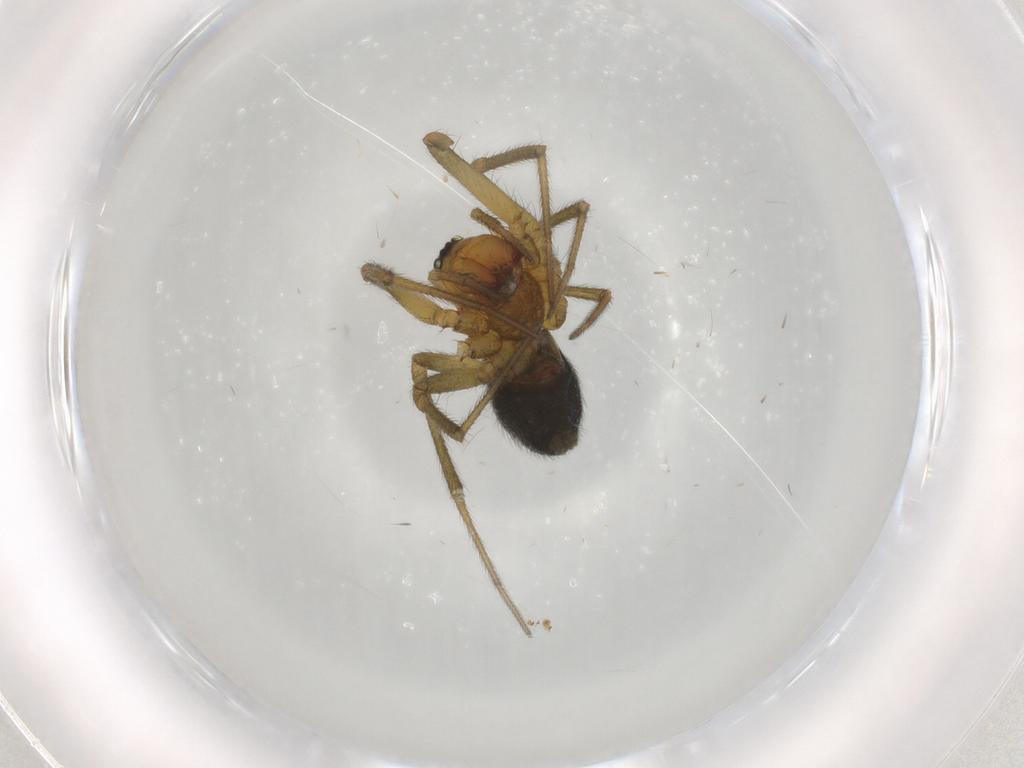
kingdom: Animalia
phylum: Arthropoda
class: Arachnida
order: Araneae
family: Linyphiidae
